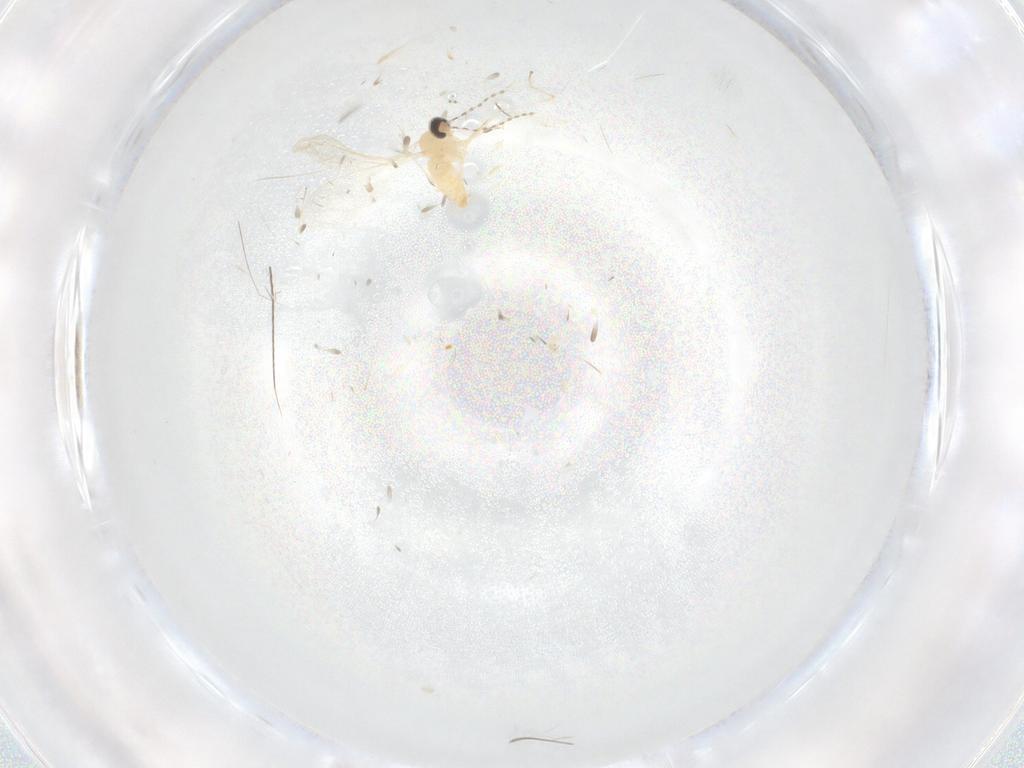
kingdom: Animalia
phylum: Arthropoda
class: Insecta
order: Diptera
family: Cecidomyiidae
